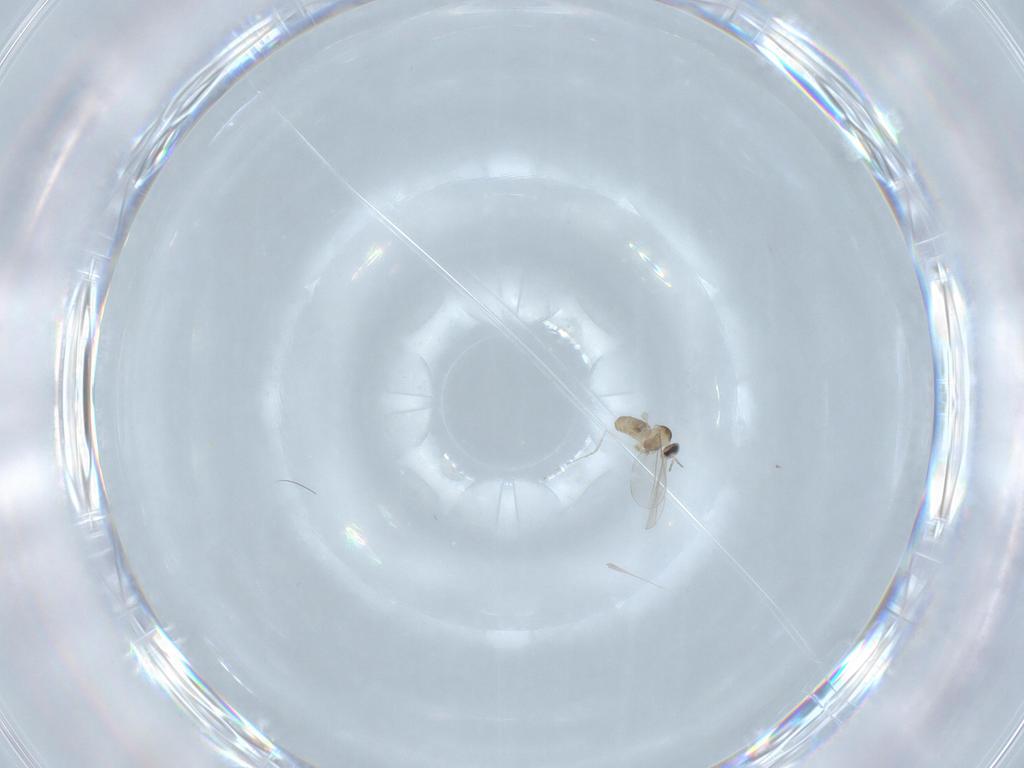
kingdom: Animalia
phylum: Arthropoda
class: Insecta
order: Diptera
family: Cecidomyiidae
